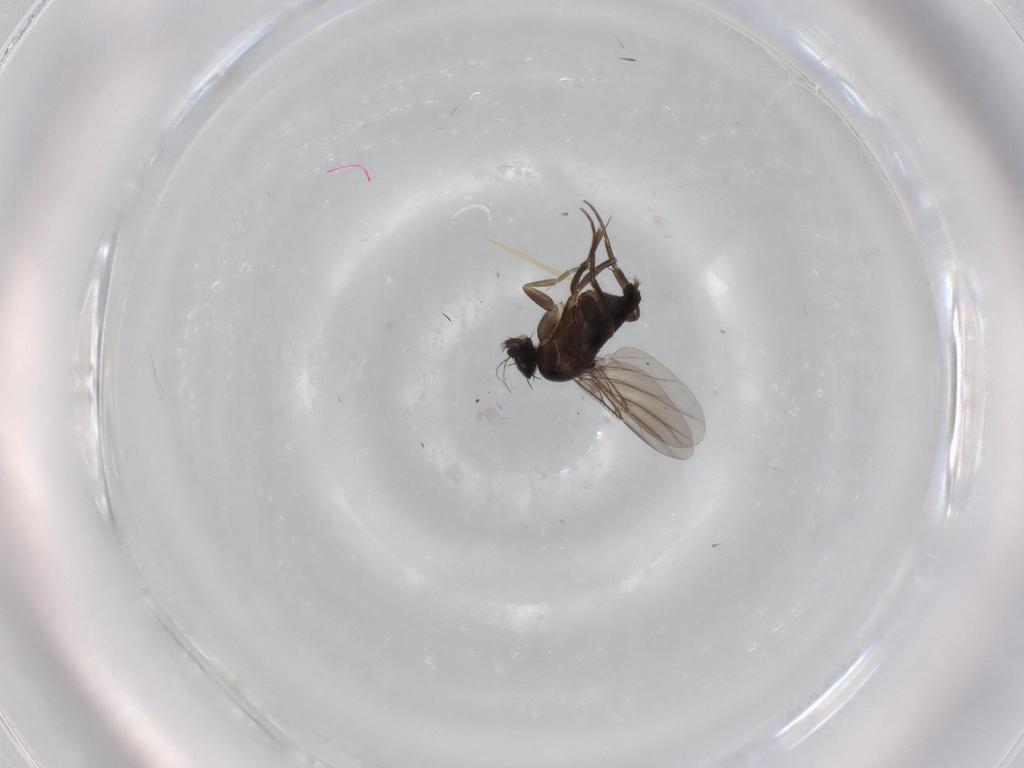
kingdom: Animalia
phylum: Arthropoda
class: Insecta
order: Diptera
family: Phoridae
